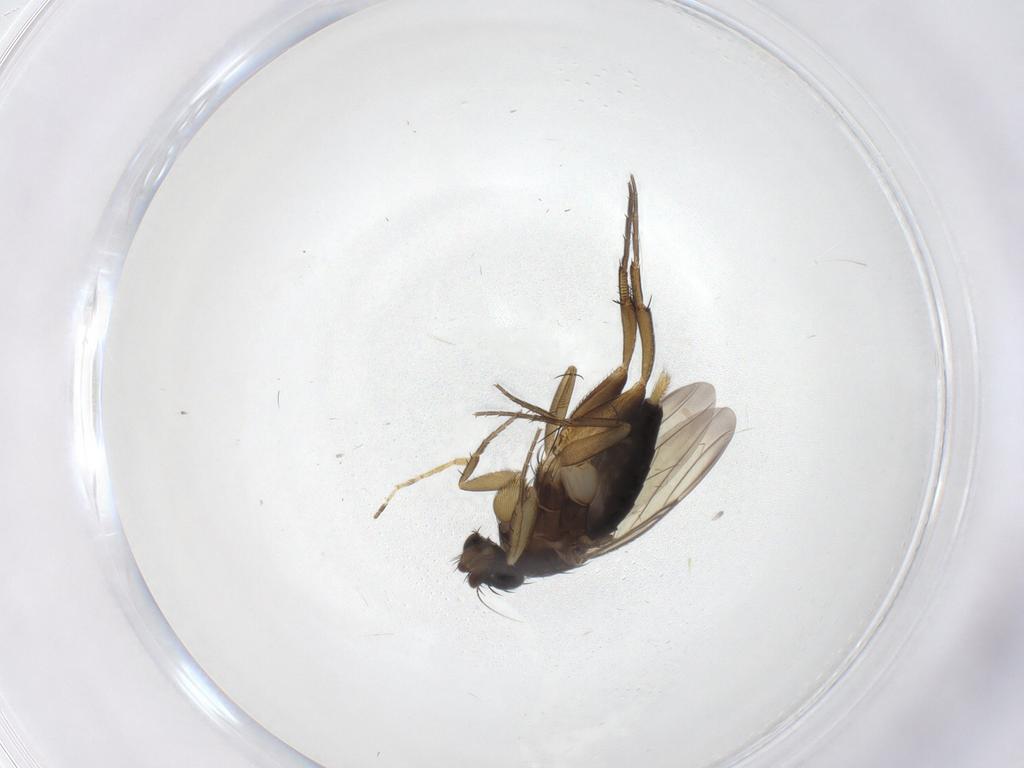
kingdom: Animalia
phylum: Arthropoda
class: Insecta
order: Diptera
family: Phoridae
